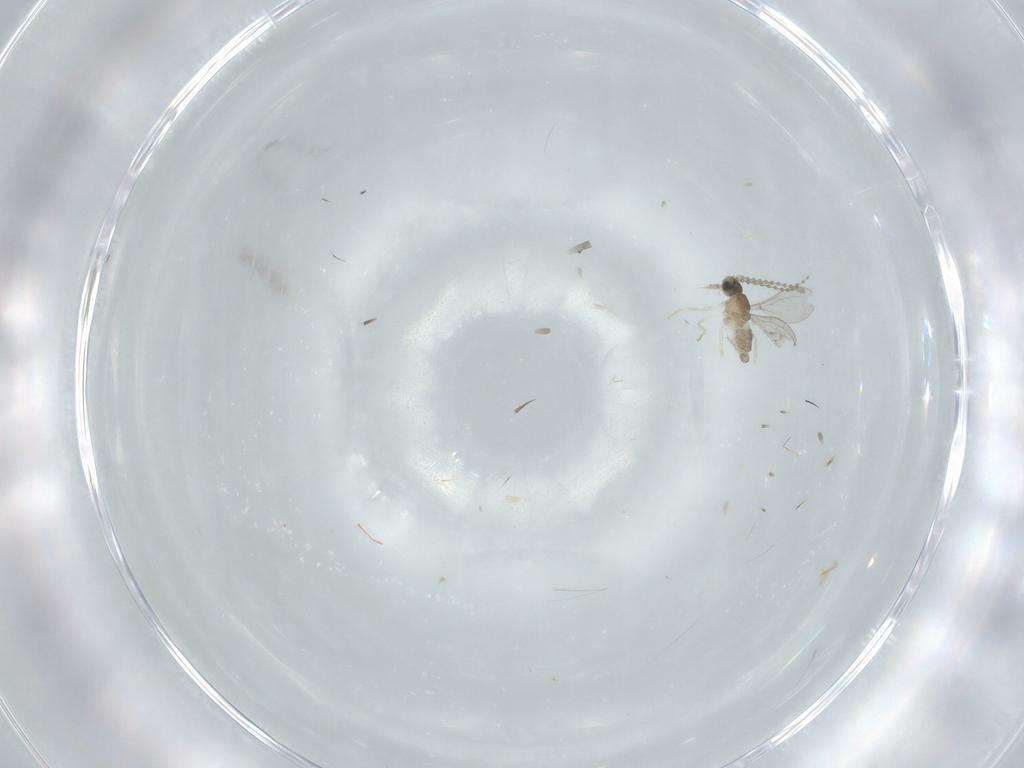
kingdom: Animalia
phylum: Arthropoda
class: Insecta
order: Diptera
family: Cecidomyiidae
